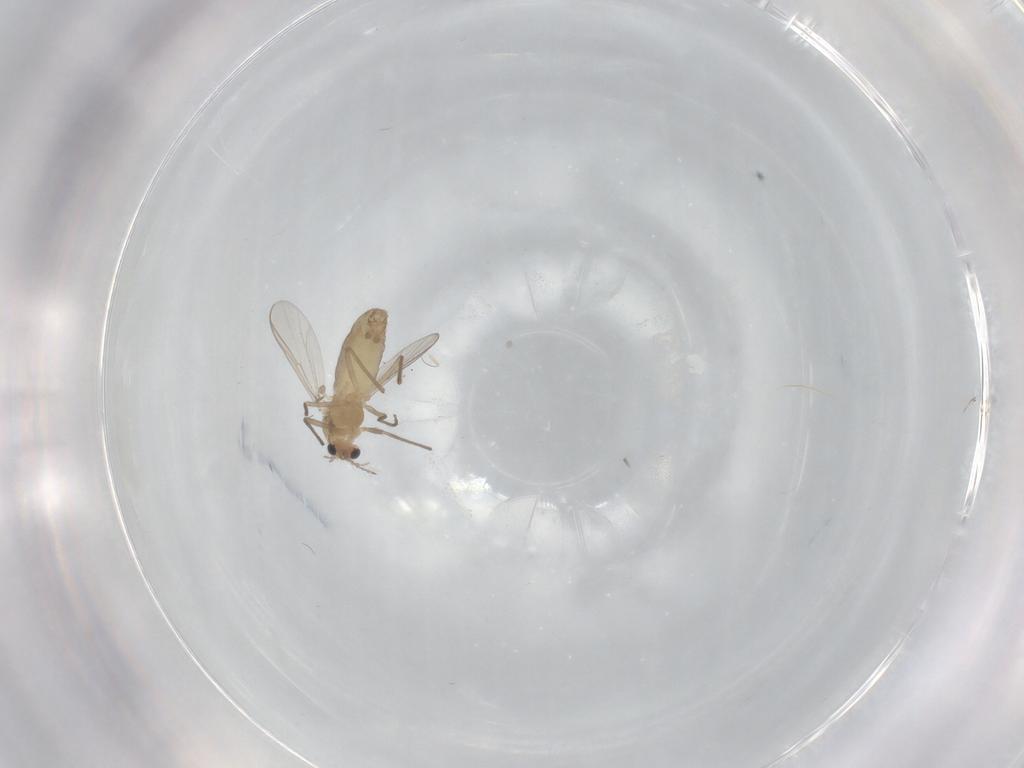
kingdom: Animalia
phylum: Arthropoda
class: Insecta
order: Diptera
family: Chironomidae
